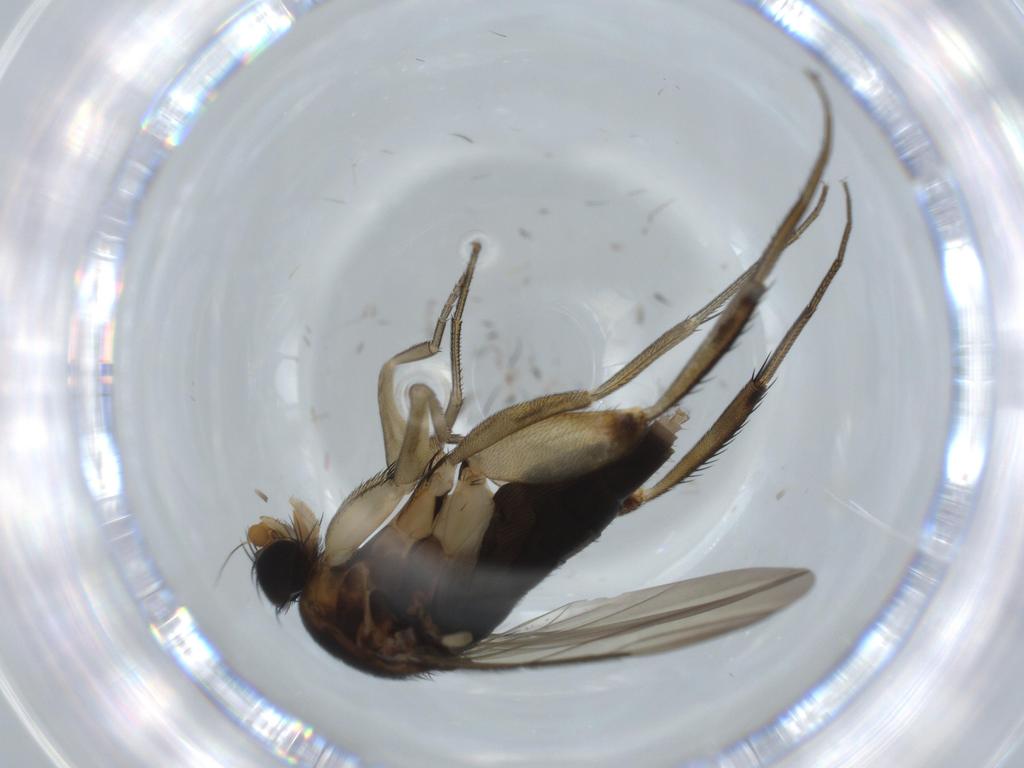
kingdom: Animalia
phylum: Arthropoda
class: Insecta
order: Diptera
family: Phoridae
